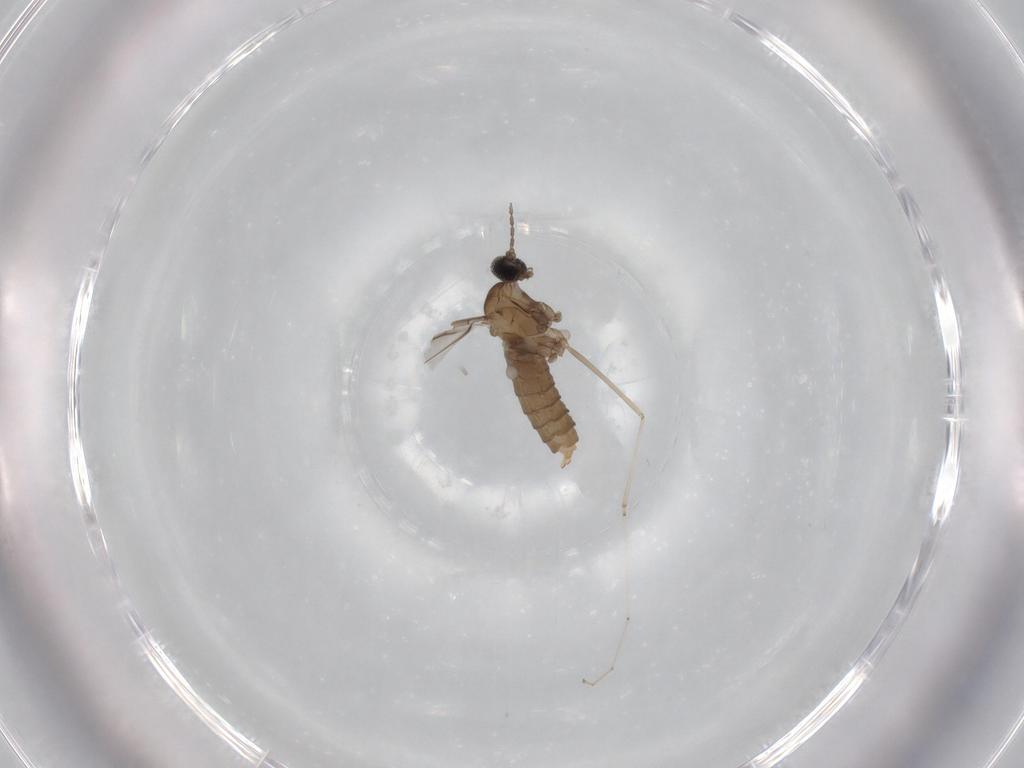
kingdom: Animalia
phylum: Arthropoda
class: Insecta
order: Diptera
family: Cecidomyiidae
